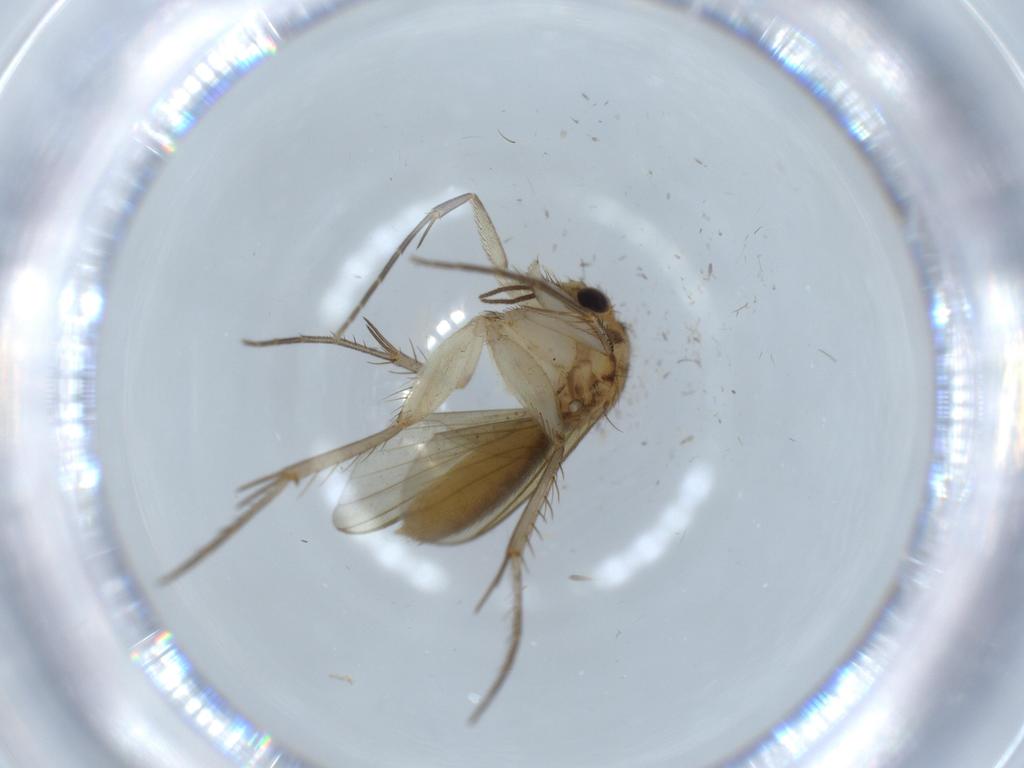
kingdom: Animalia
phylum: Arthropoda
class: Insecta
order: Diptera
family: Mycetophilidae
